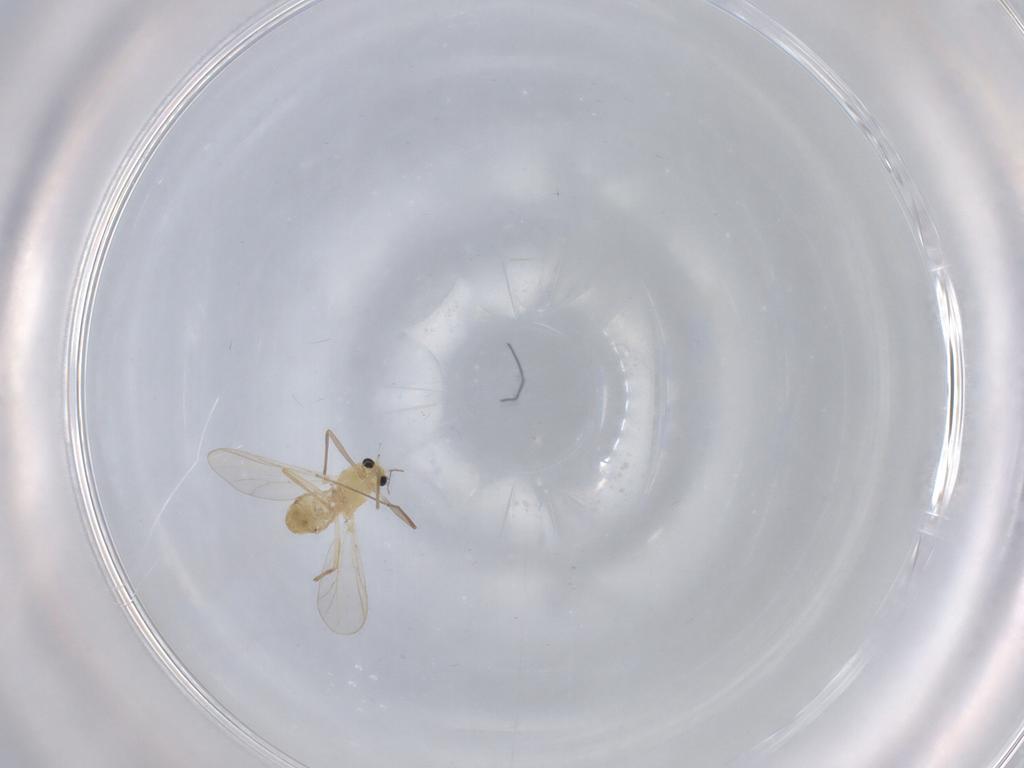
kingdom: Animalia
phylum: Arthropoda
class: Insecta
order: Diptera
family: Chironomidae
